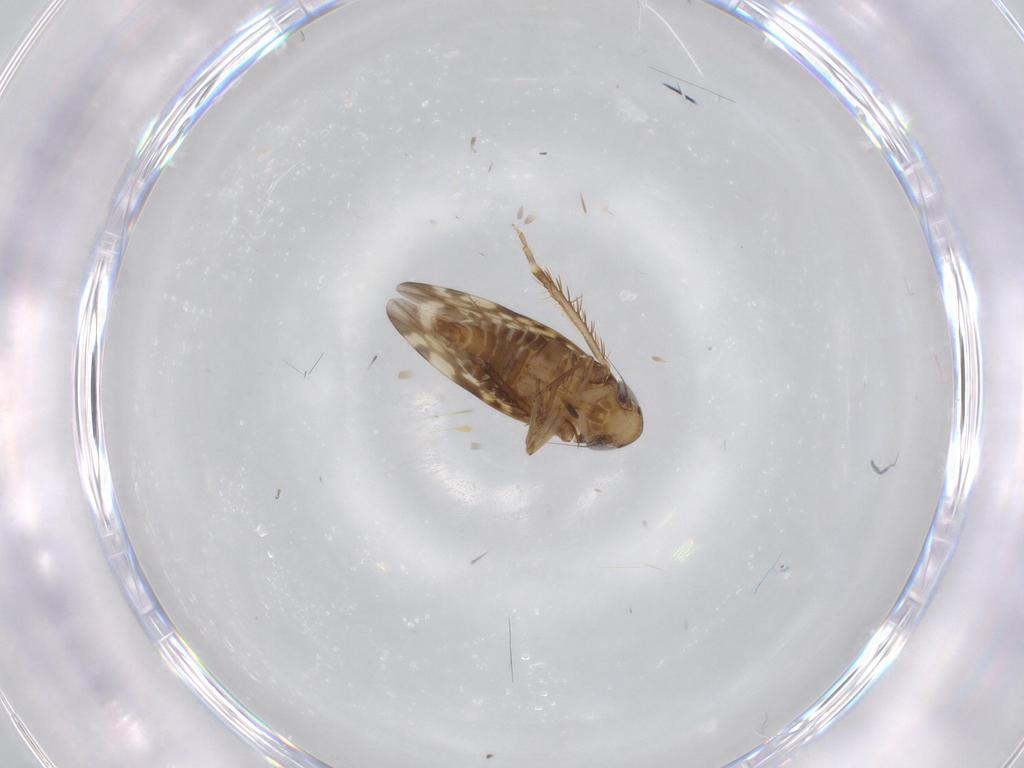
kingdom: Animalia
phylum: Arthropoda
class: Insecta
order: Hemiptera
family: Cicadellidae
